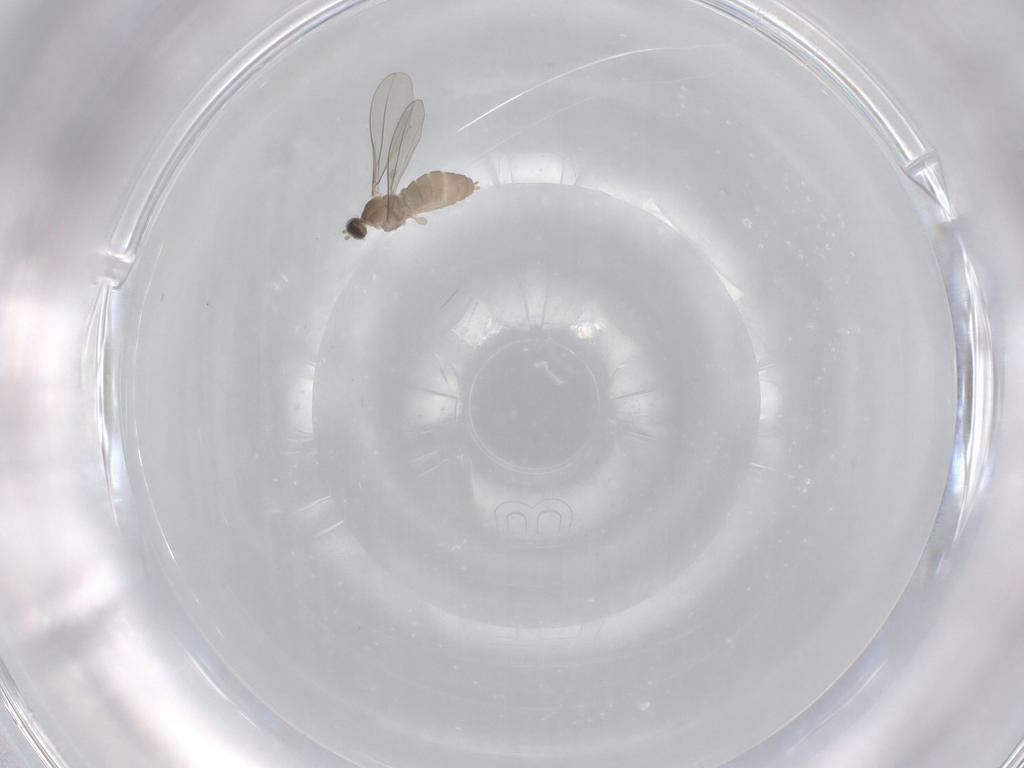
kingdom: Animalia
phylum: Arthropoda
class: Insecta
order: Diptera
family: Cecidomyiidae
